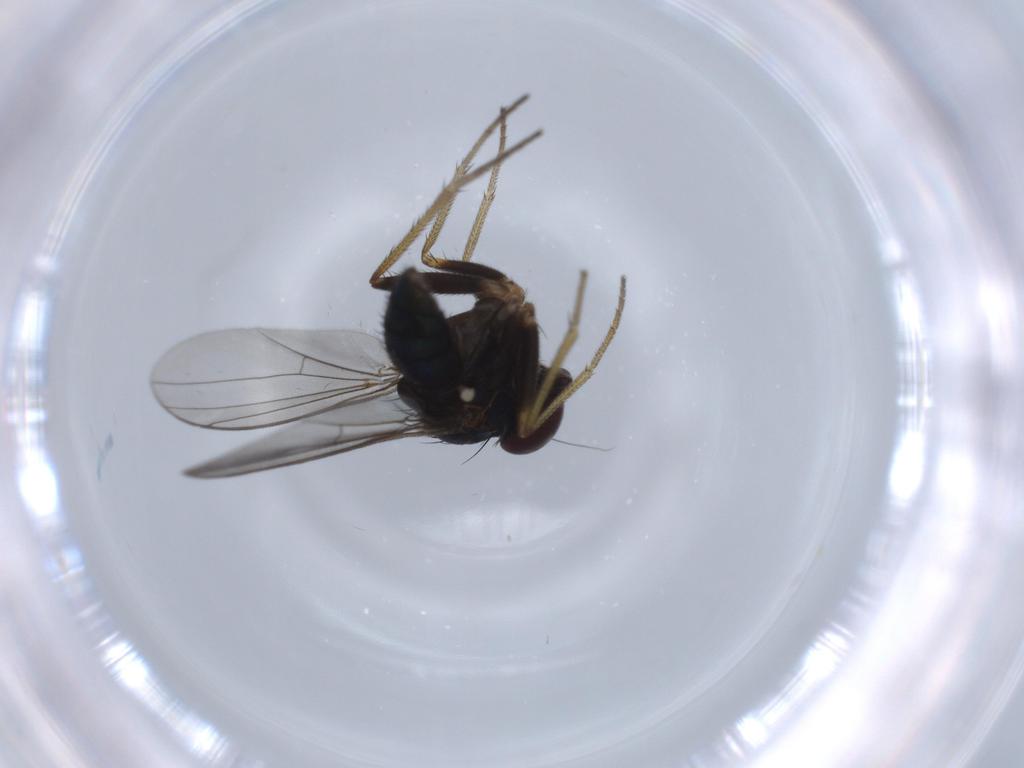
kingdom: Animalia
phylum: Arthropoda
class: Insecta
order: Diptera
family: Dolichopodidae
